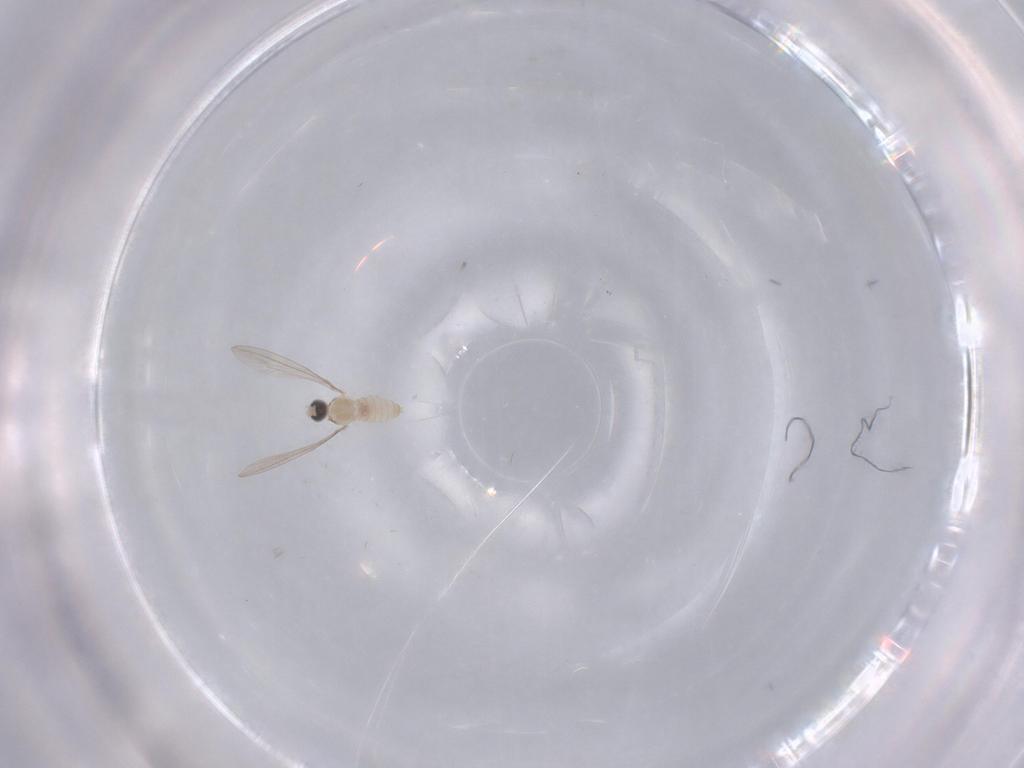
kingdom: Animalia
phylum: Arthropoda
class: Insecta
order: Diptera
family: Cecidomyiidae
